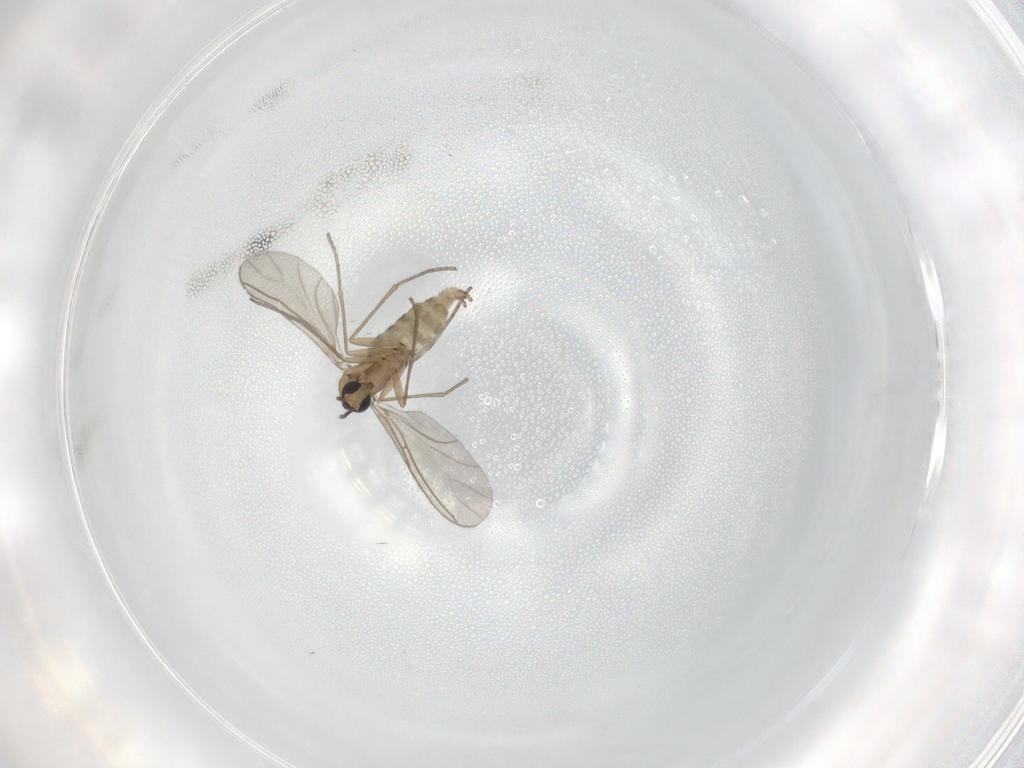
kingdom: Animalia
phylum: Arthropoda
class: Insecta
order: Diptera
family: Sciaridae
